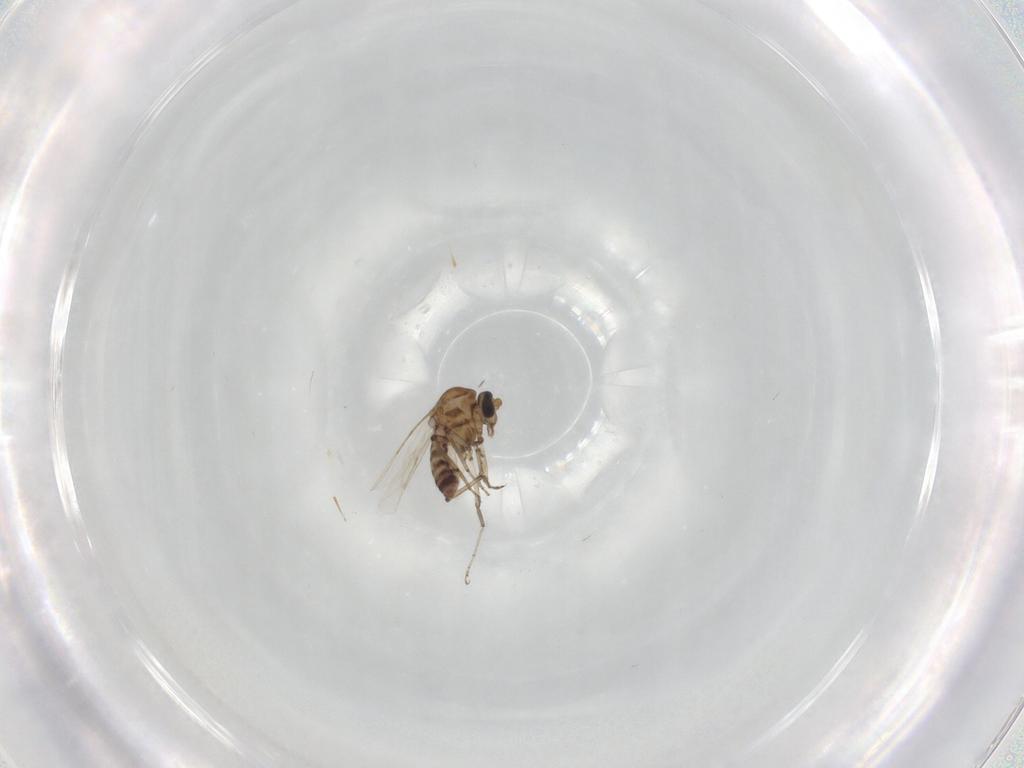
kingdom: Animalia
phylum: Arthropoda
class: Insecta
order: Diptera
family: Ceratopogonidae
